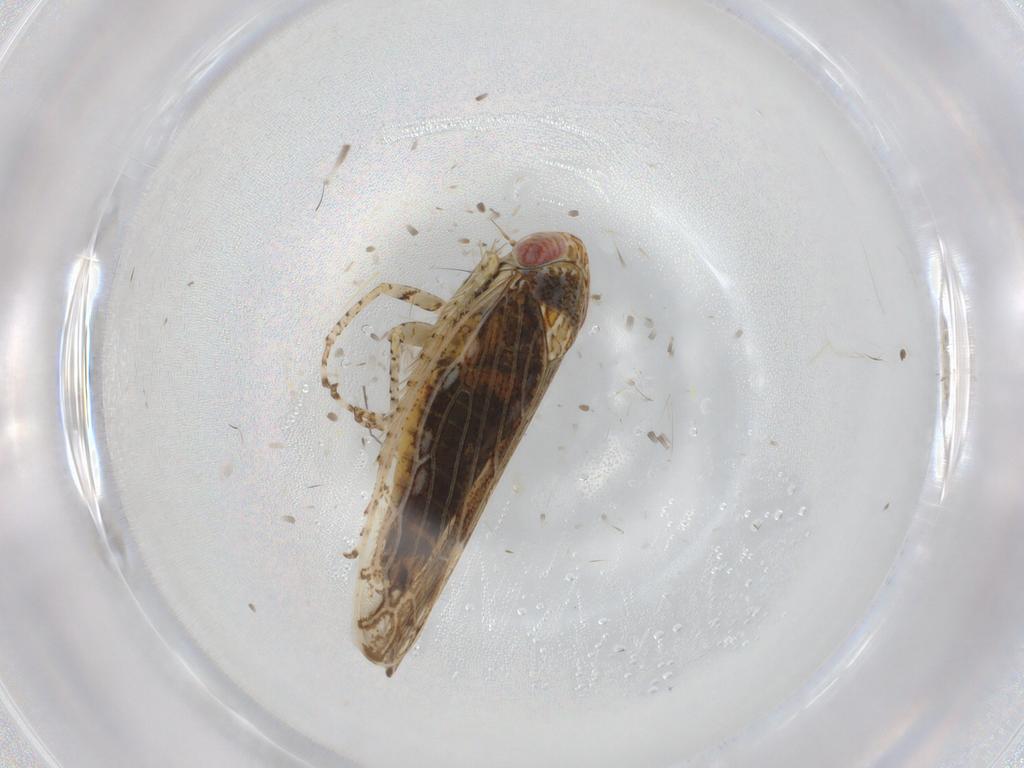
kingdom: Animalia
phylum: Arthropoda
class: Insecta
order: Hemiptera
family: Cicadellidae
